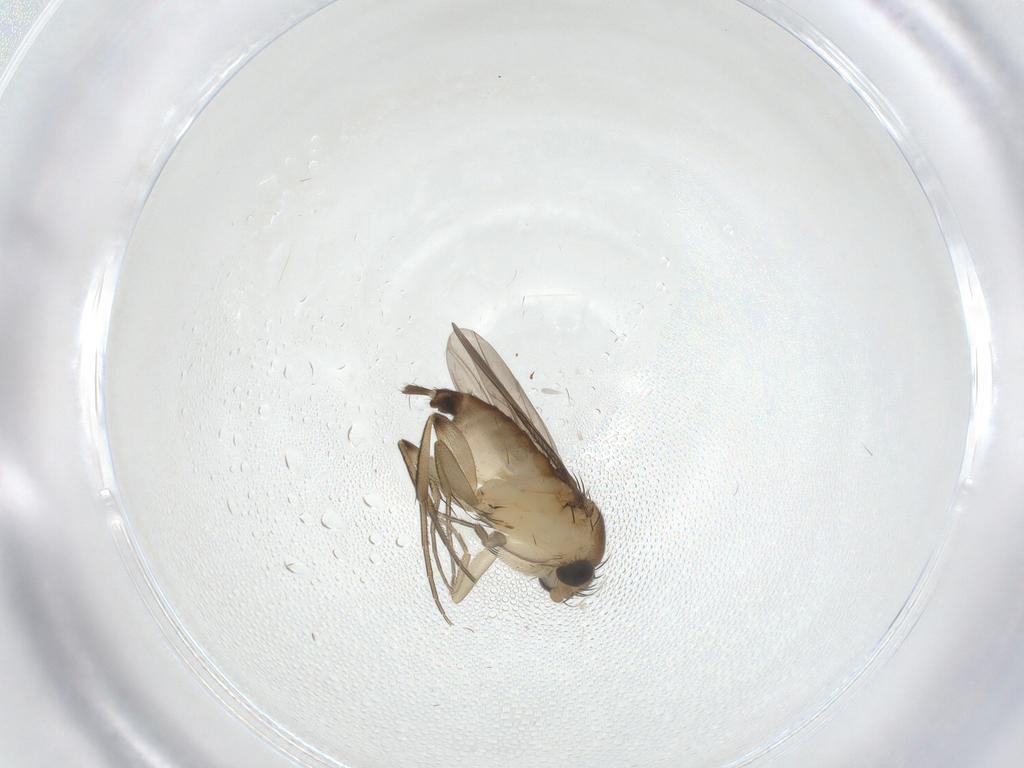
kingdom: Animalia
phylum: Arthropoda
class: Insecta
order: Diptera
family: Phoridae
